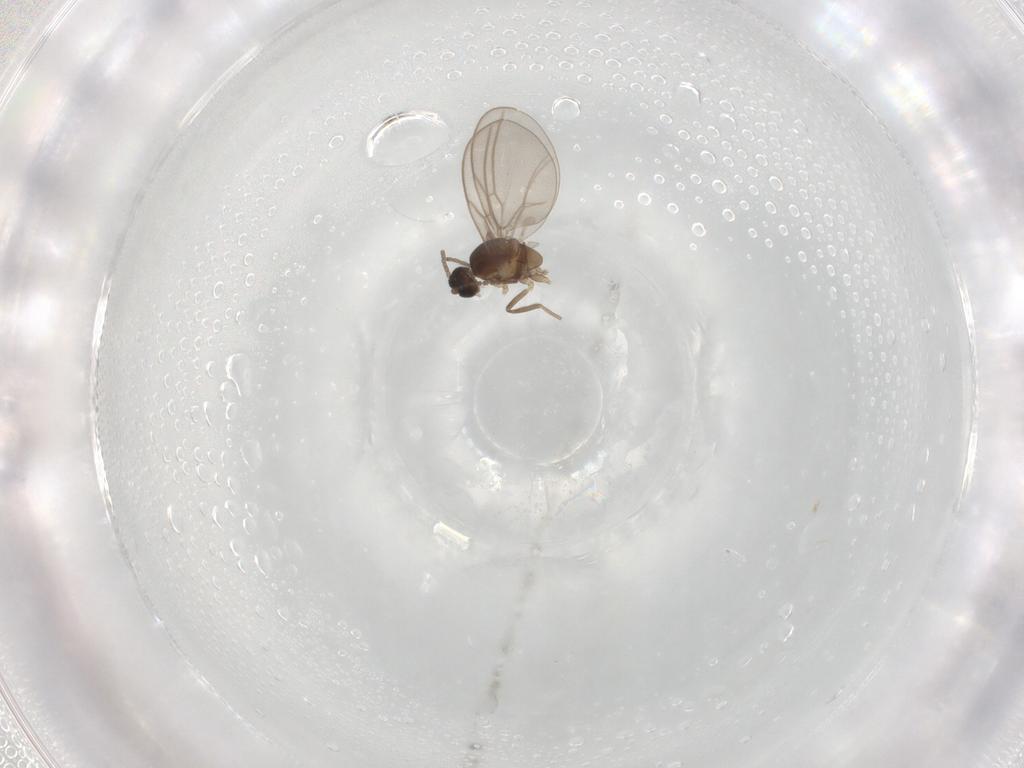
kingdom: Animalia
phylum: Arthropoda
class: Insecta
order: Diptera
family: Cecidomyiidae
